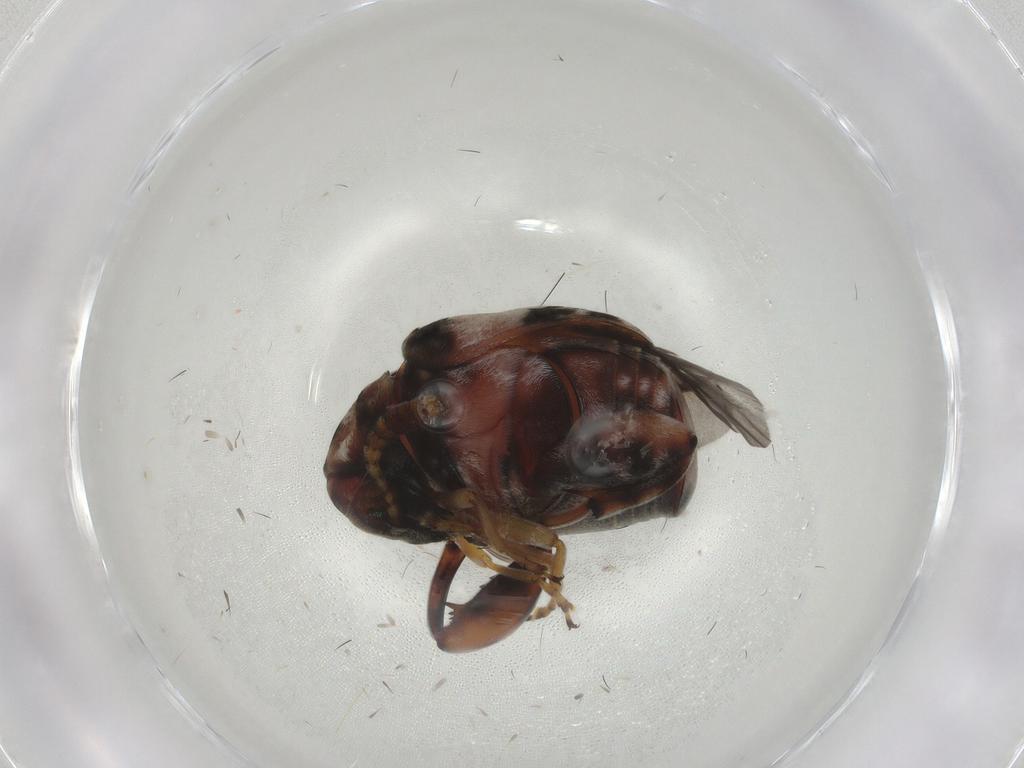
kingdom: Animalia
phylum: Arthropoda
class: Insecta
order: Coleoptera
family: Chrysomelidae
